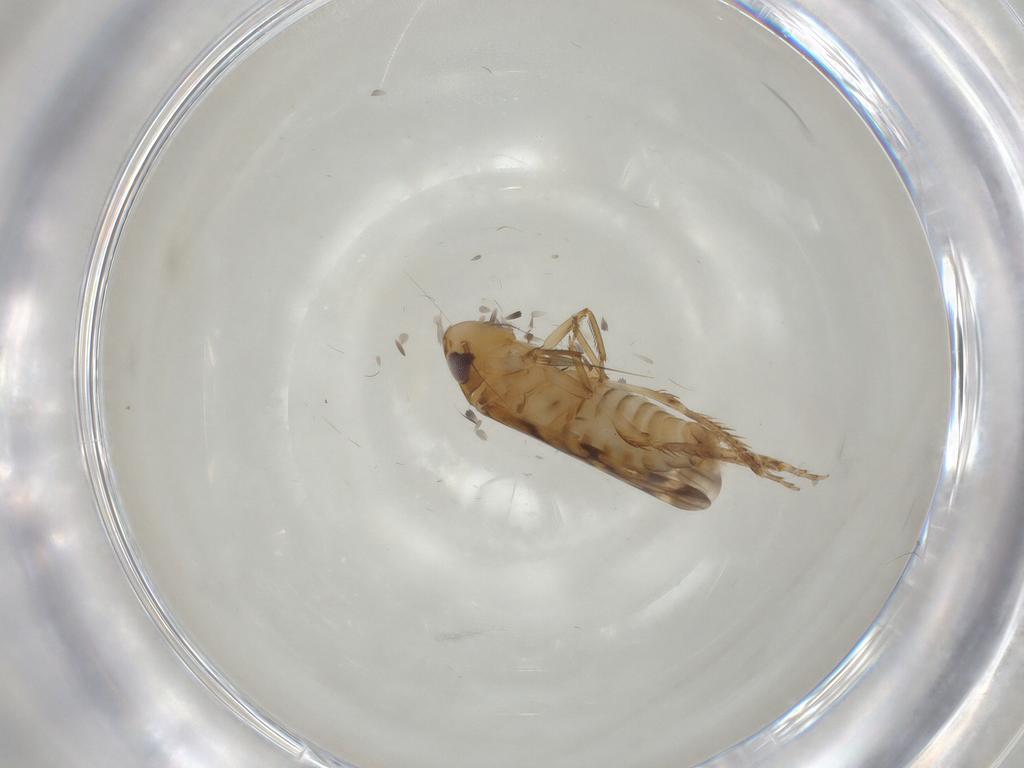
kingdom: Animalia
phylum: Arthropoda
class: Insecta
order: Hemiptera
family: Cicadellidae
